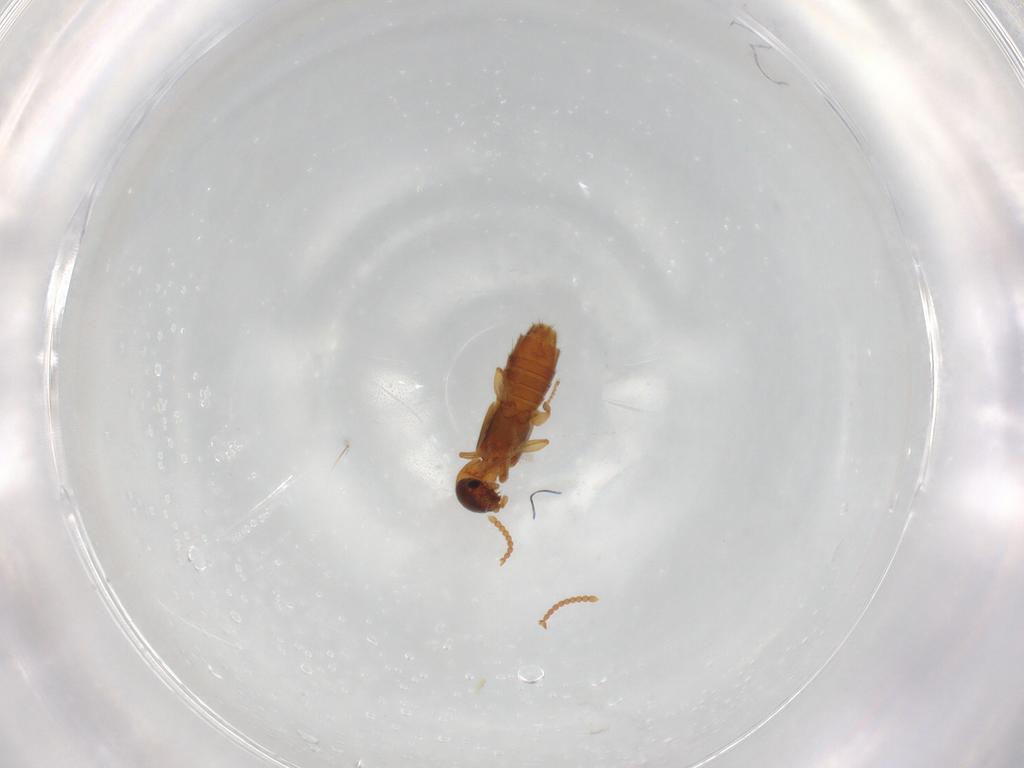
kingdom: Animalia
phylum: Arthropoda
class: Insecta
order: Coleoptera
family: Staphylinidae
